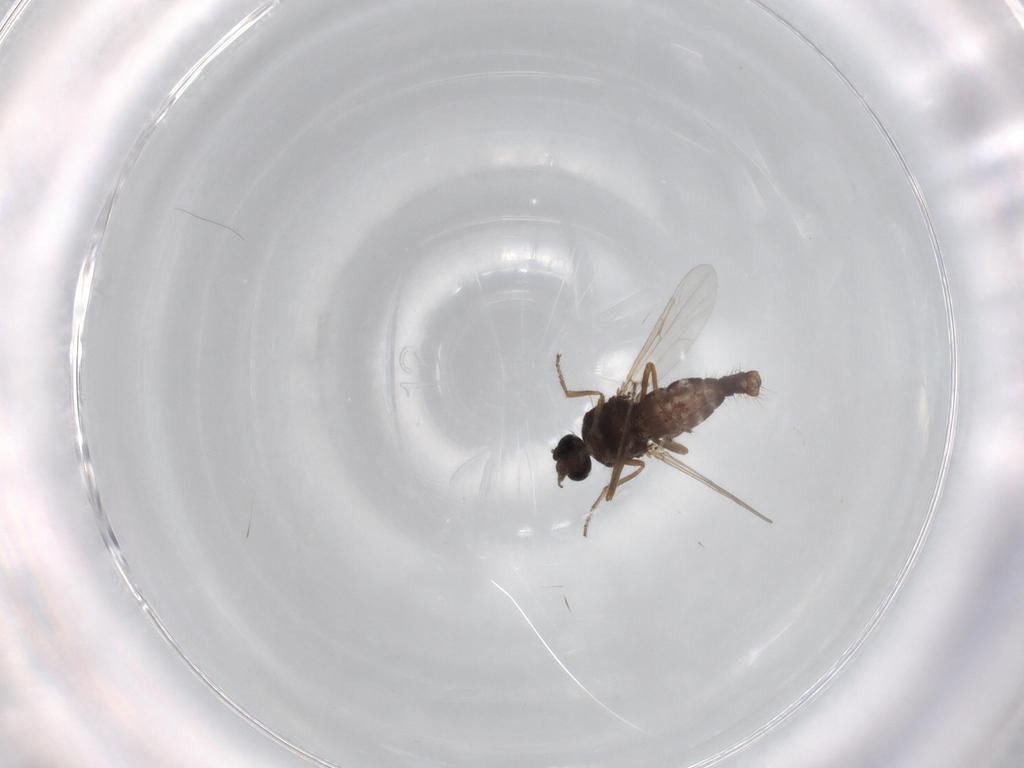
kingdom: Animalia
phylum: Arthropoda
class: Insecta
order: Diptera
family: Ceratopogonidae
